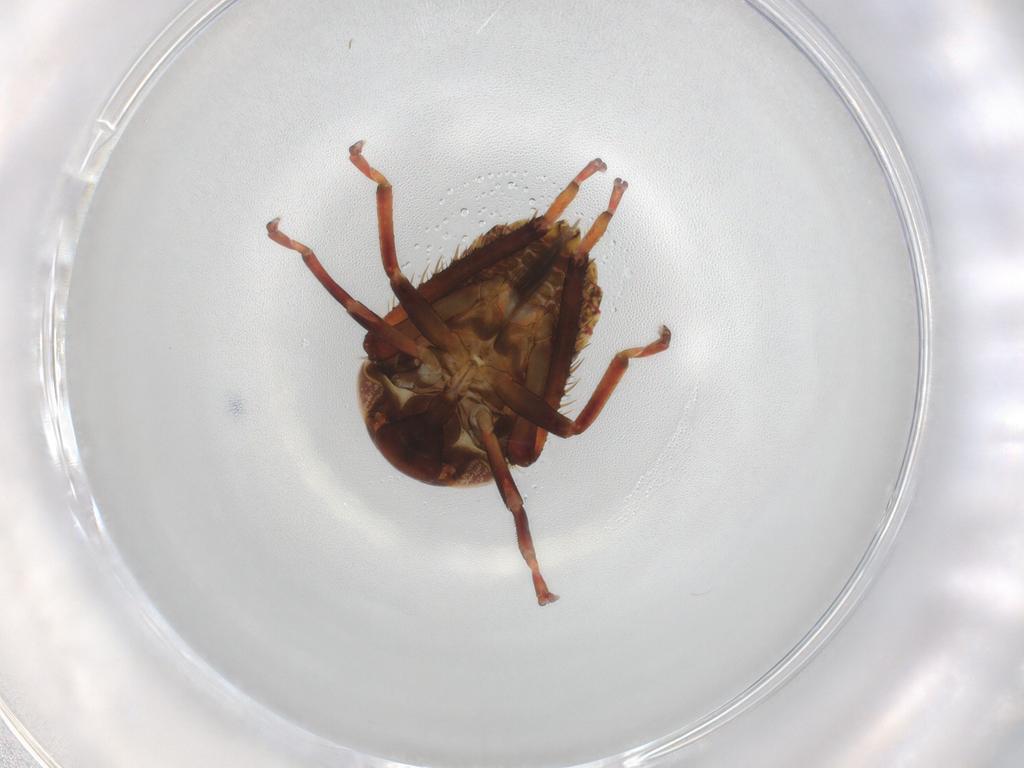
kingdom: Animalia
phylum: Arthropoda
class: Insecta
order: Hemiptera
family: Cicadellidae
